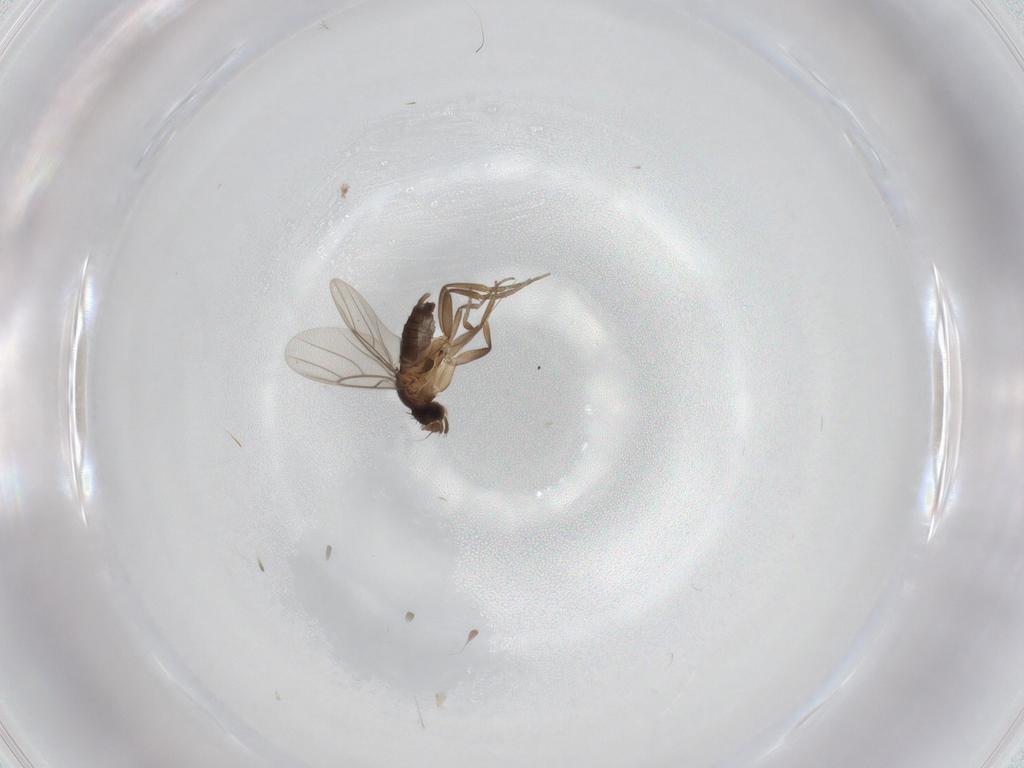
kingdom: Animalia
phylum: Arthropoda
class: Insecta
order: Diptera
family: Phoridae
